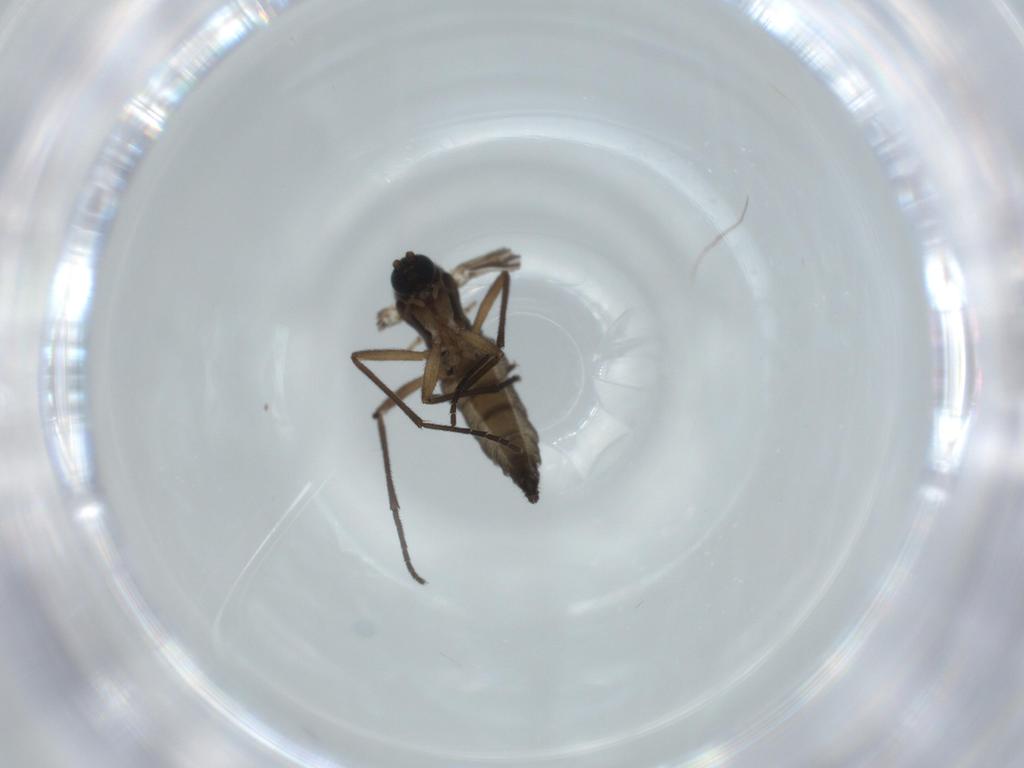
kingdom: Animalia
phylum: Arthropoda
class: Insecta
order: Diptera
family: Sciaridae
